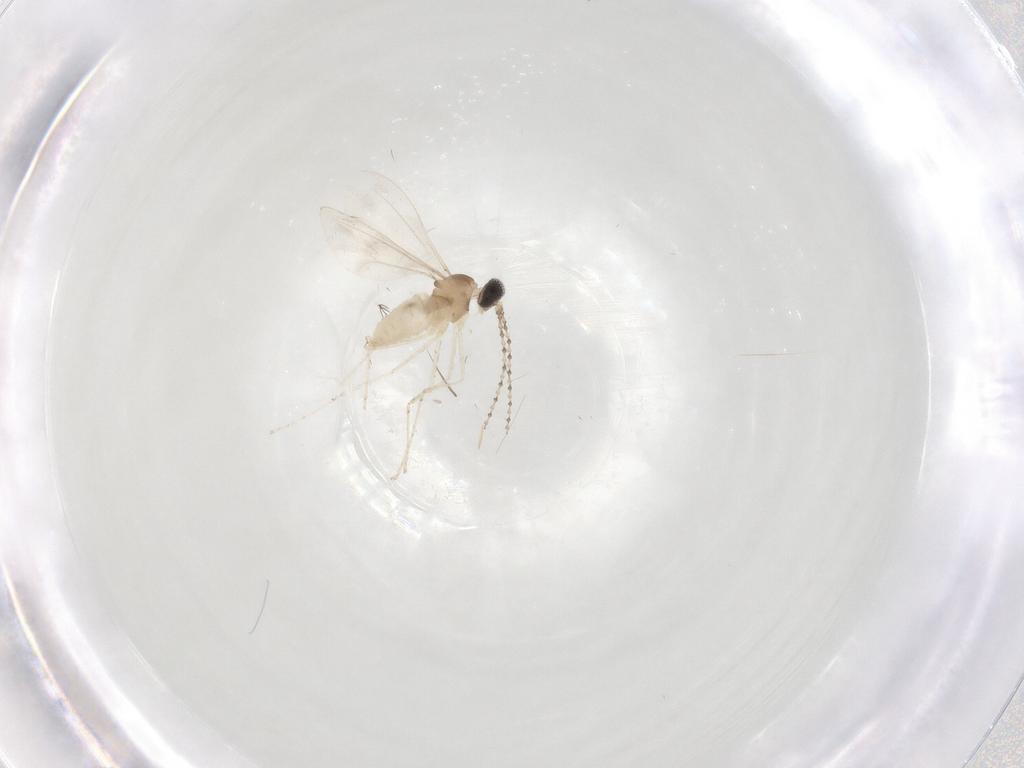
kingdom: Animalia
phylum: Arthropoda
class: Insecta
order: Diptera
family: Cecidomyiidae
